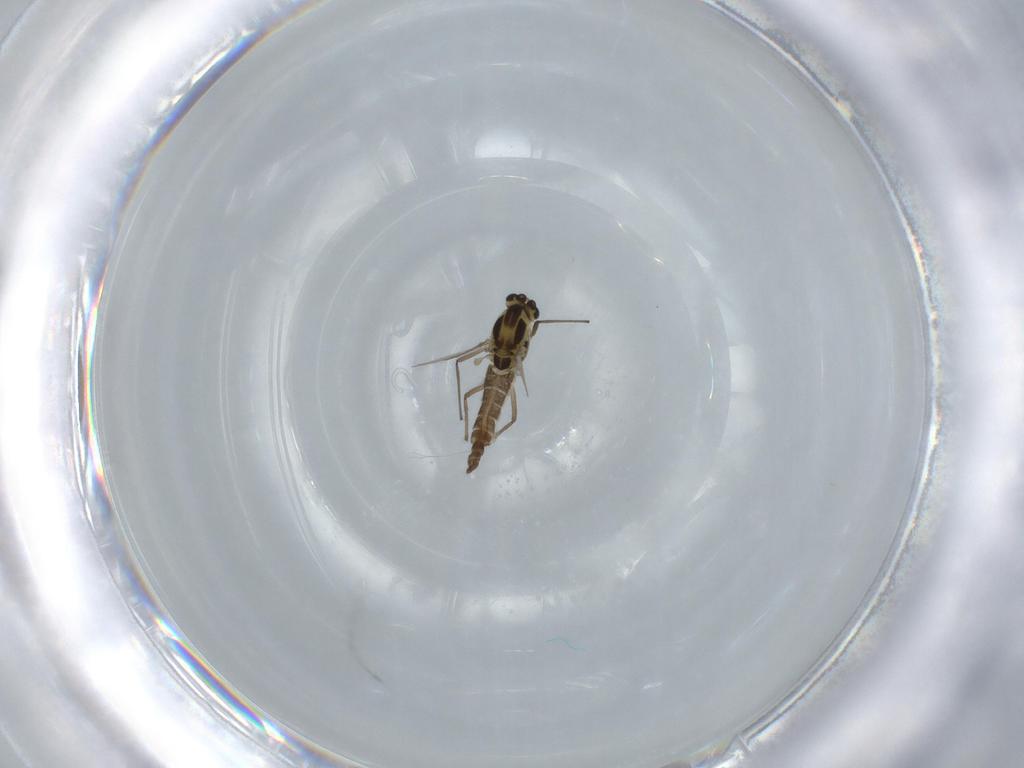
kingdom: Animalia
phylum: Arthropoda
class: Insecta
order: Diptera
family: Chironomidae
